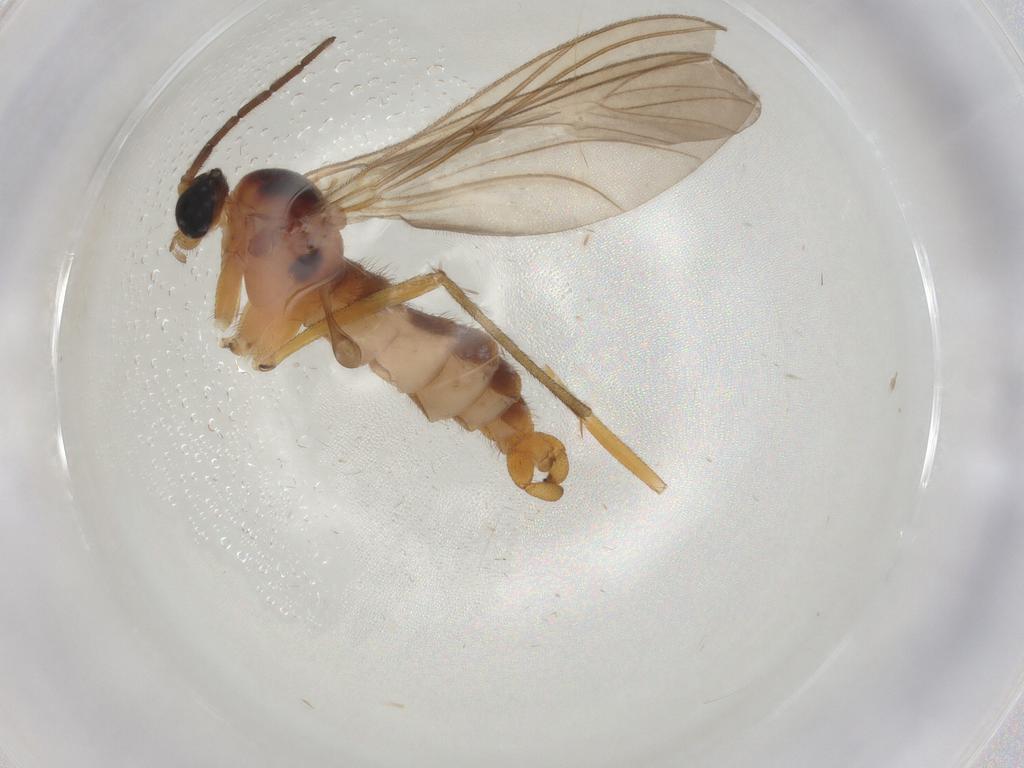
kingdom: Animalia
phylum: Arthropoda
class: Insecta
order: Diptera
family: Sciaridae
